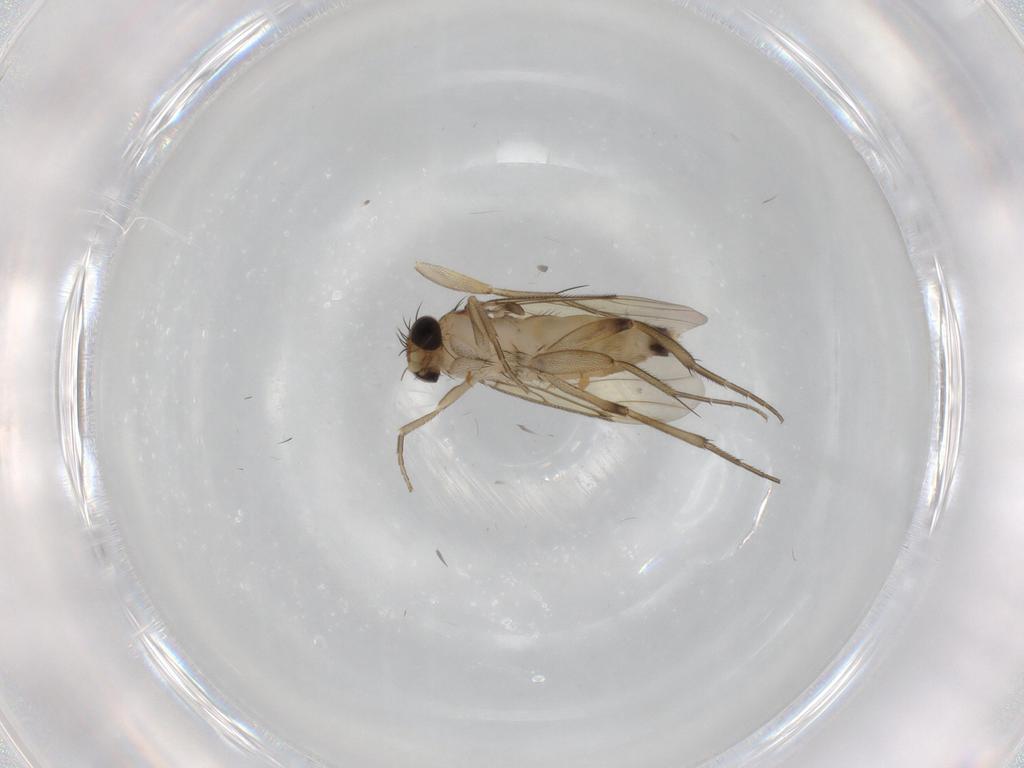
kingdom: Animalia
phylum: Arthropoda
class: Insecta
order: Diptera
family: Phoridae
